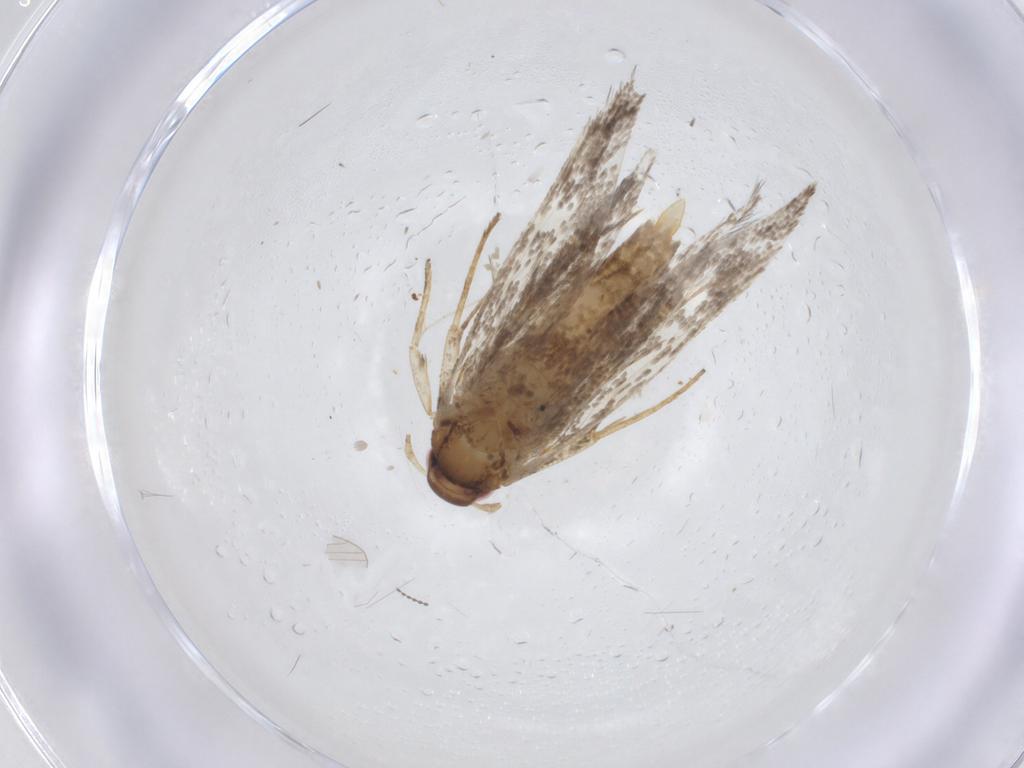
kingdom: Animalia
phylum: Arthropoda
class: Insecta
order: Lepidoptera
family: Gelechiidae
